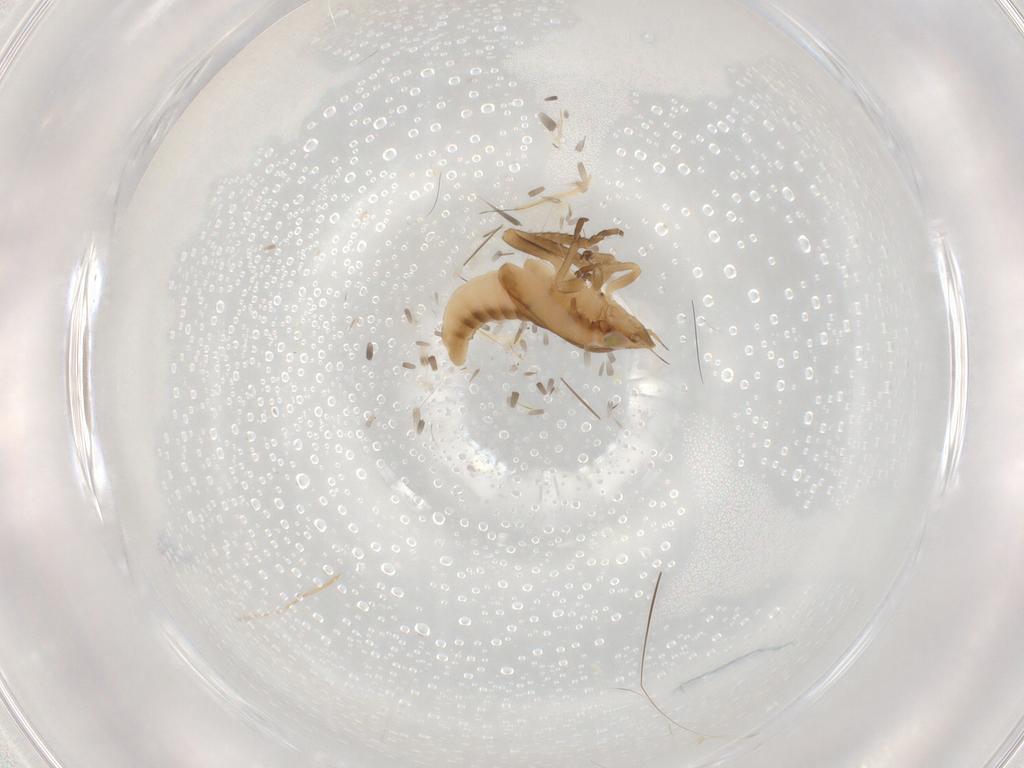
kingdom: Animalia
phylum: Arthropoda
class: Insecta
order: Hemiptera
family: Cicadellidae
